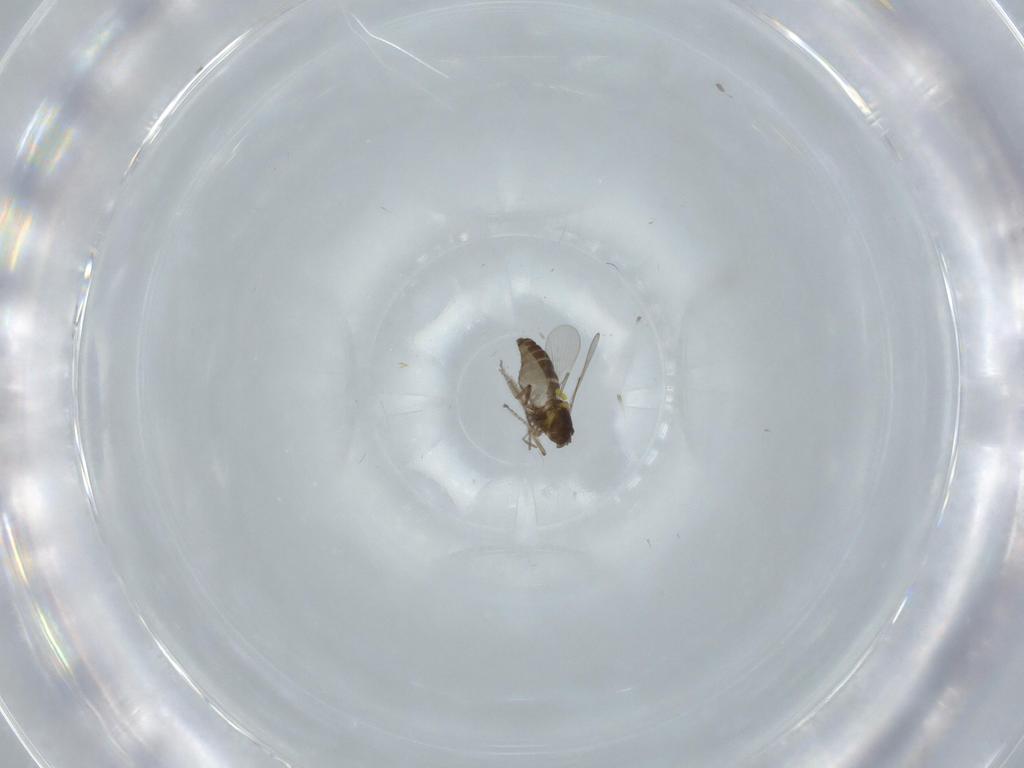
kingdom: Animalia
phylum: Arthropoda
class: Insecta
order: Diptera
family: Ceratopogonidae
